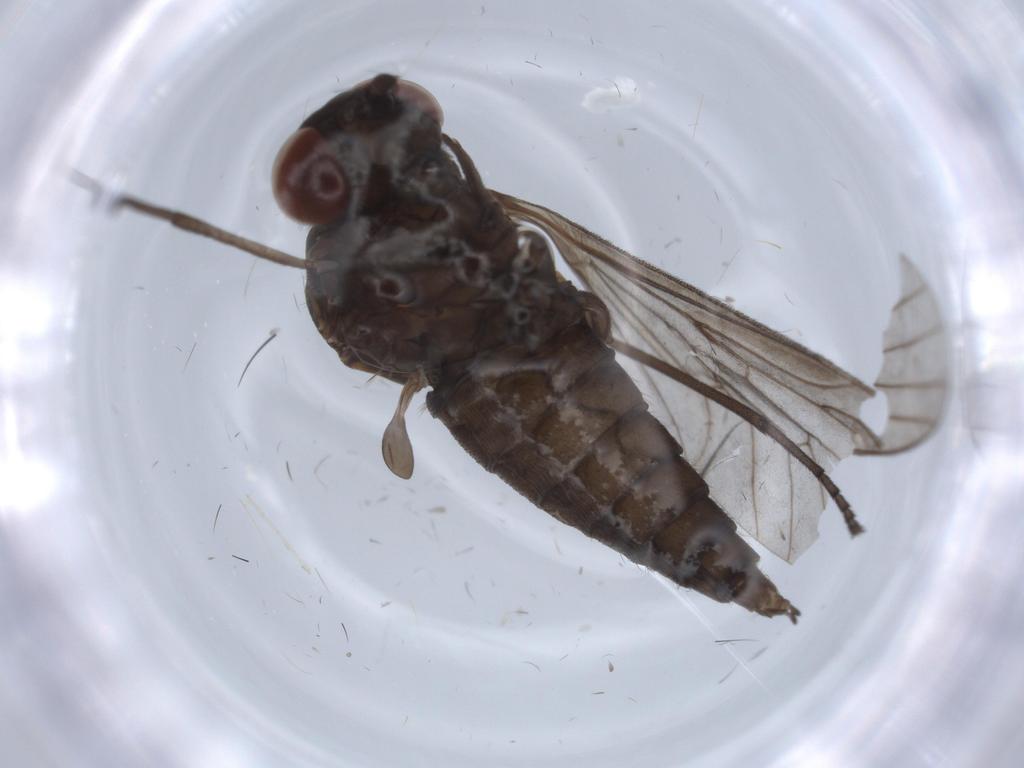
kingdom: Animalia
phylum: Arthropoda
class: Insecta
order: Diptera
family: Rhagionidae
